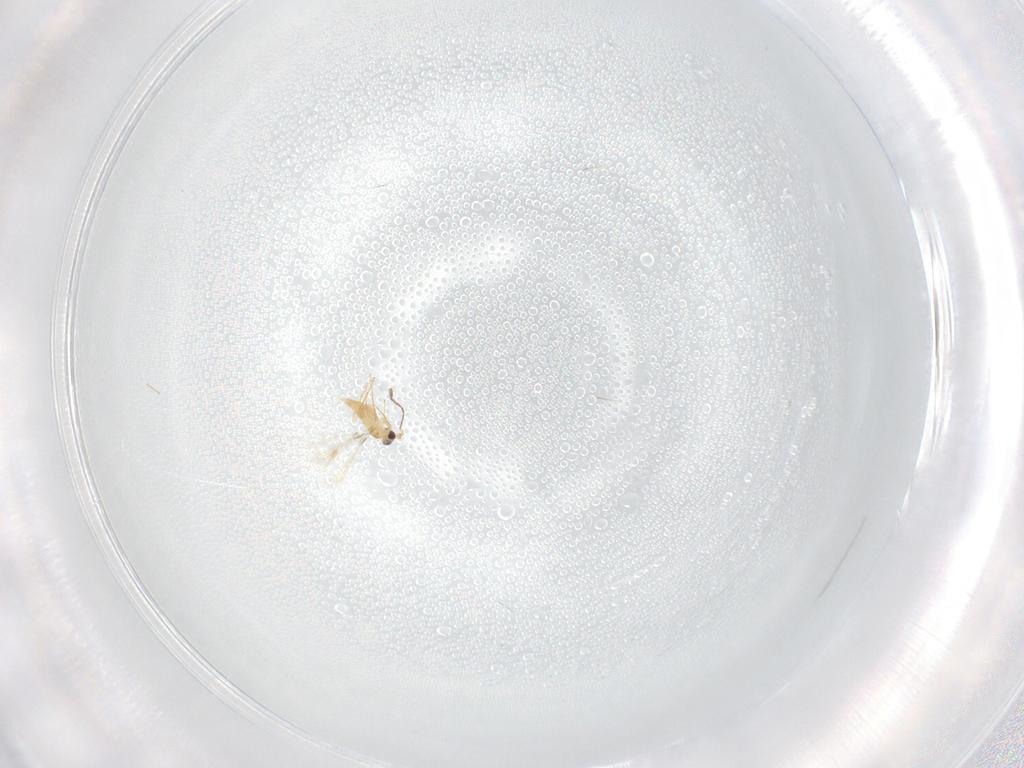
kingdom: Animalia
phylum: Arthropoda
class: Insecta
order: Hymenoptera
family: Mymaridae
